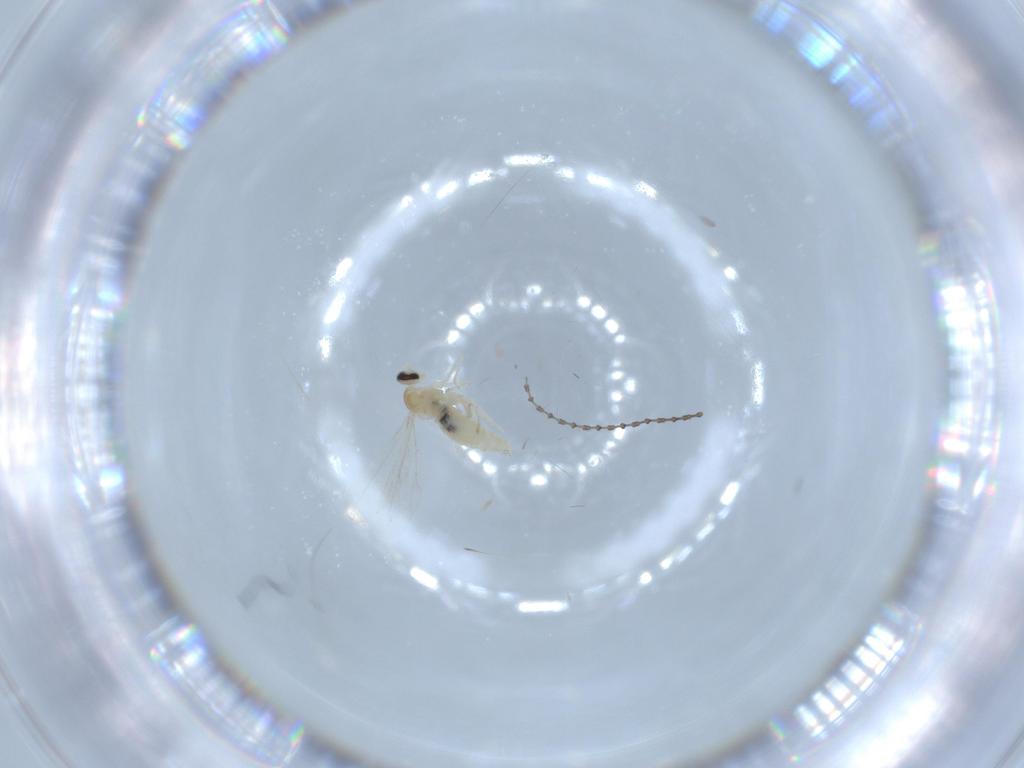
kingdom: Animalia
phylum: Arthropoda
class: Insecta
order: Diptera
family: Cecidomyiidae
